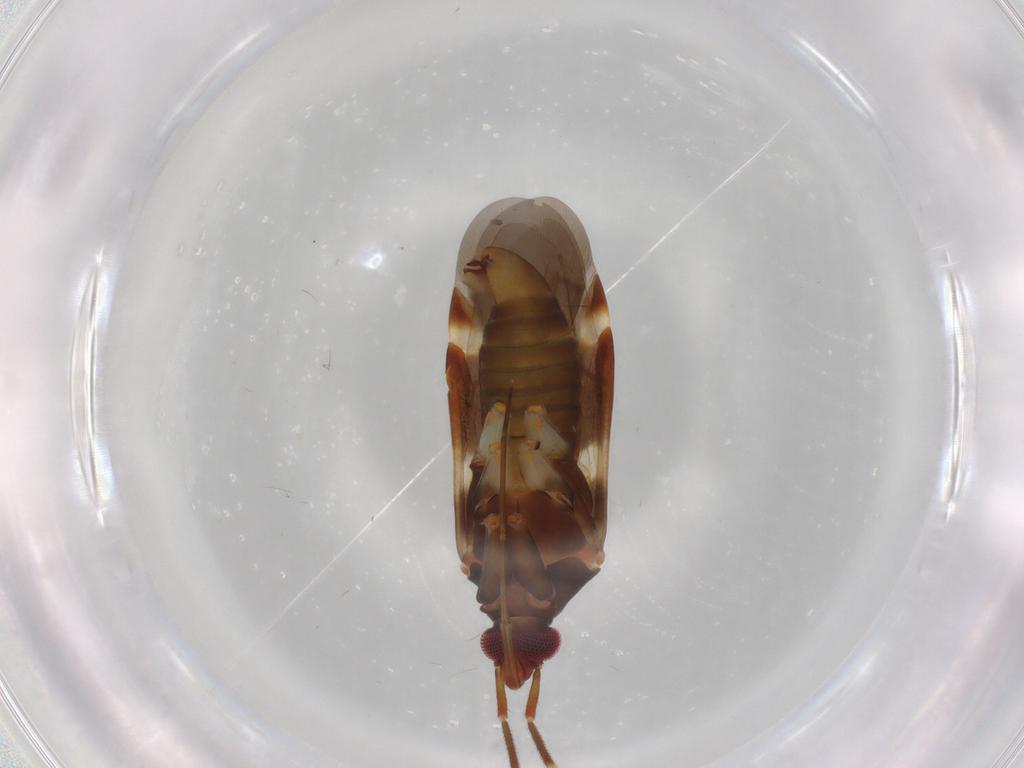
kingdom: Animalia
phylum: Arthropoda
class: Insecta
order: Hemiptera
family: Miridae
